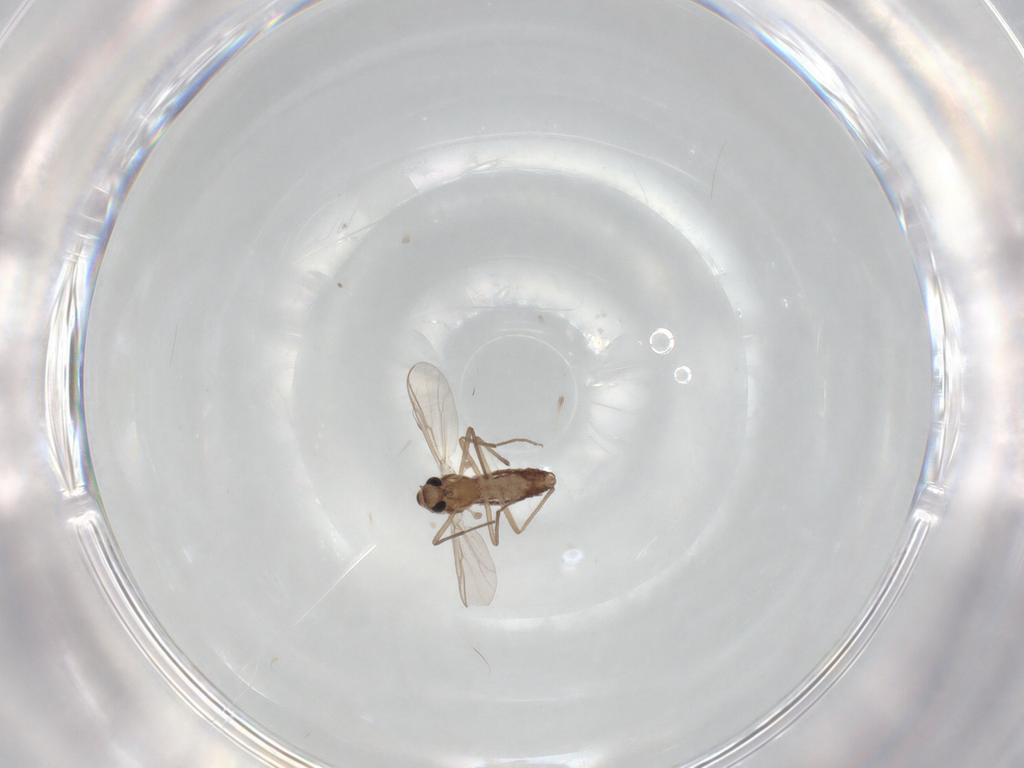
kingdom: Animalia
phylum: Arthropoda
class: Insecta
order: Diptera
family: Cecidomyiidae
